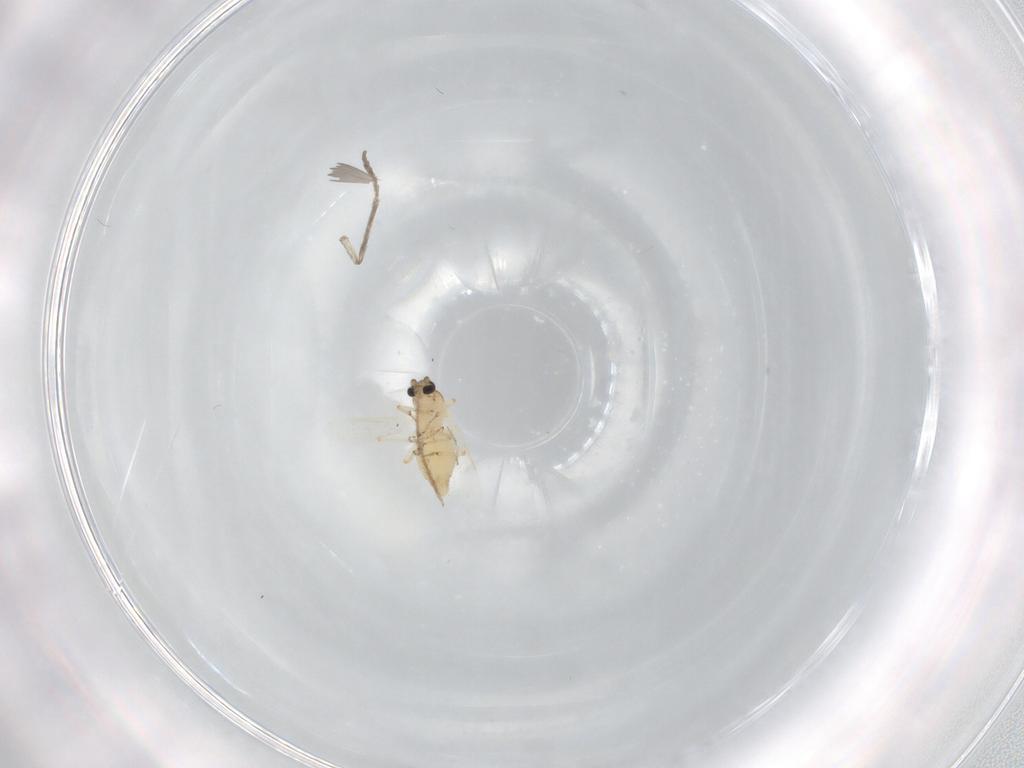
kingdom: Animalia
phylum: Arthropoda
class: Insecta
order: Diptera
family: Ceratopogonidae
